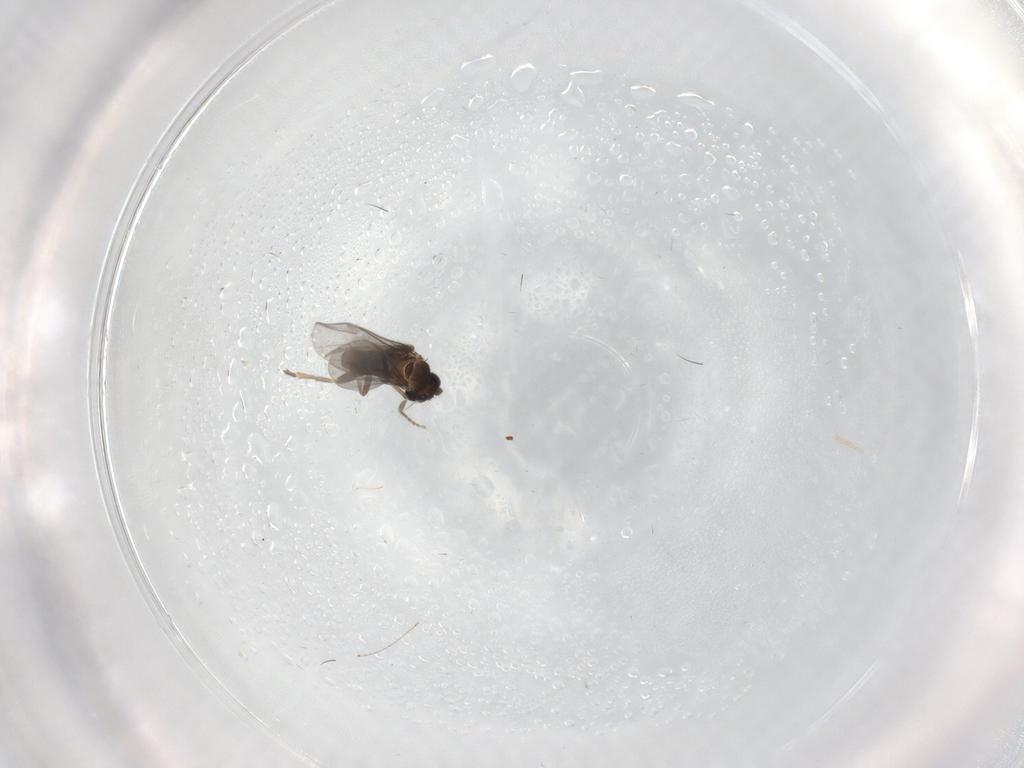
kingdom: Animalia
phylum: Arthropoda
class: Insecta
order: Diptera
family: Tipulidae
